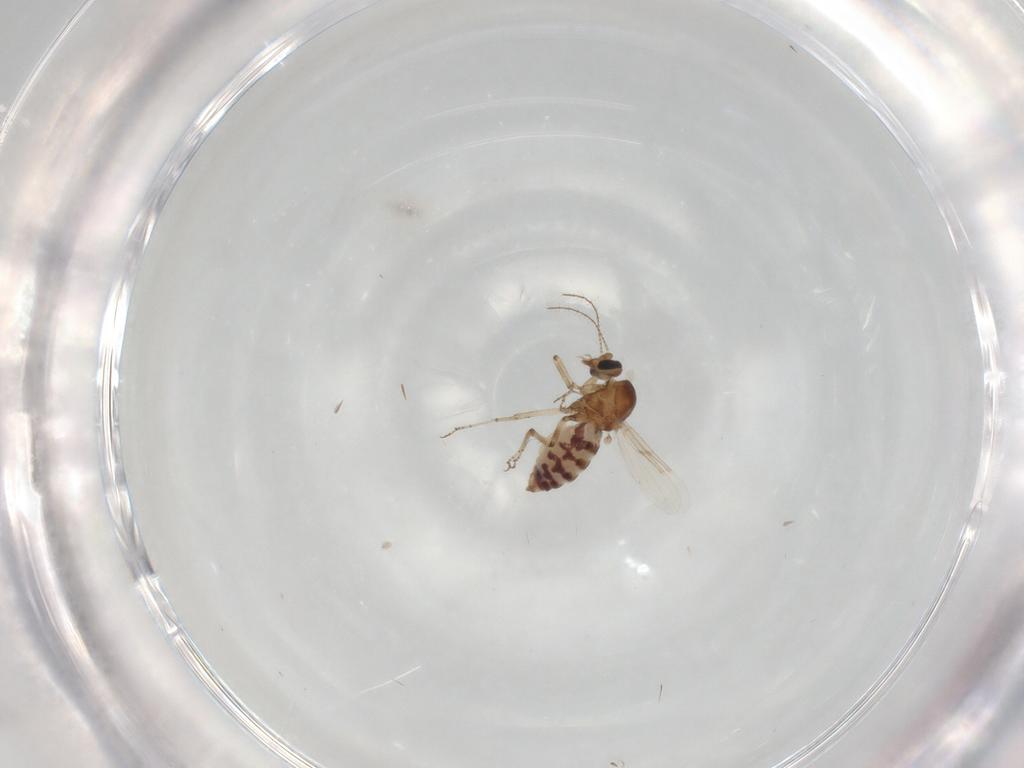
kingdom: Animalia
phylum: Arthropoda
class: Insecta
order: Diptera
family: Ceratopogonidae
